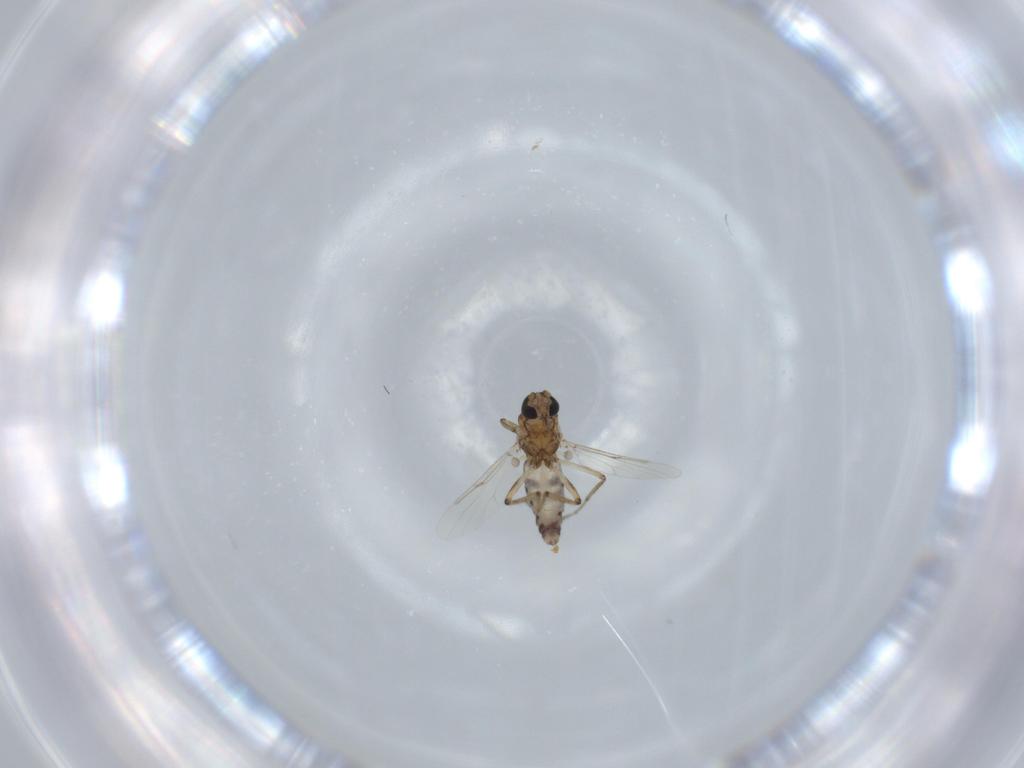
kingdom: Animalia
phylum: Arthropoda
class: Insecta
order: Diptera
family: Ceratopogonidae
